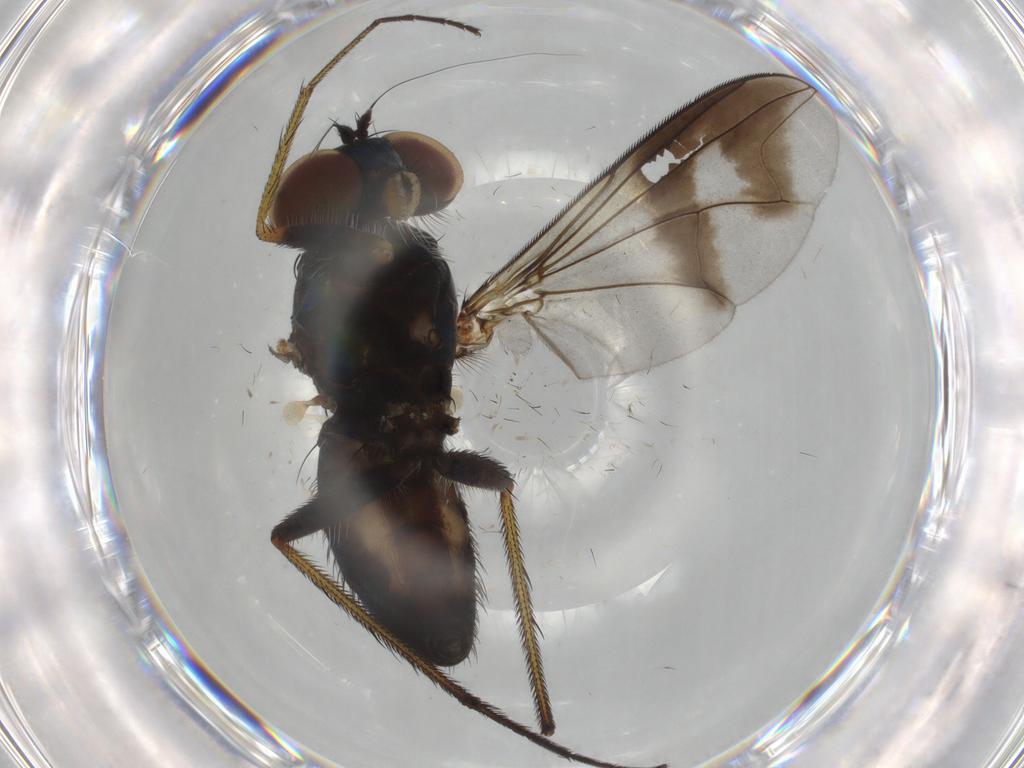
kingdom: Animalia
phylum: Arthropoda
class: Insecta
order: Diptera
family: Dolichopodidae
